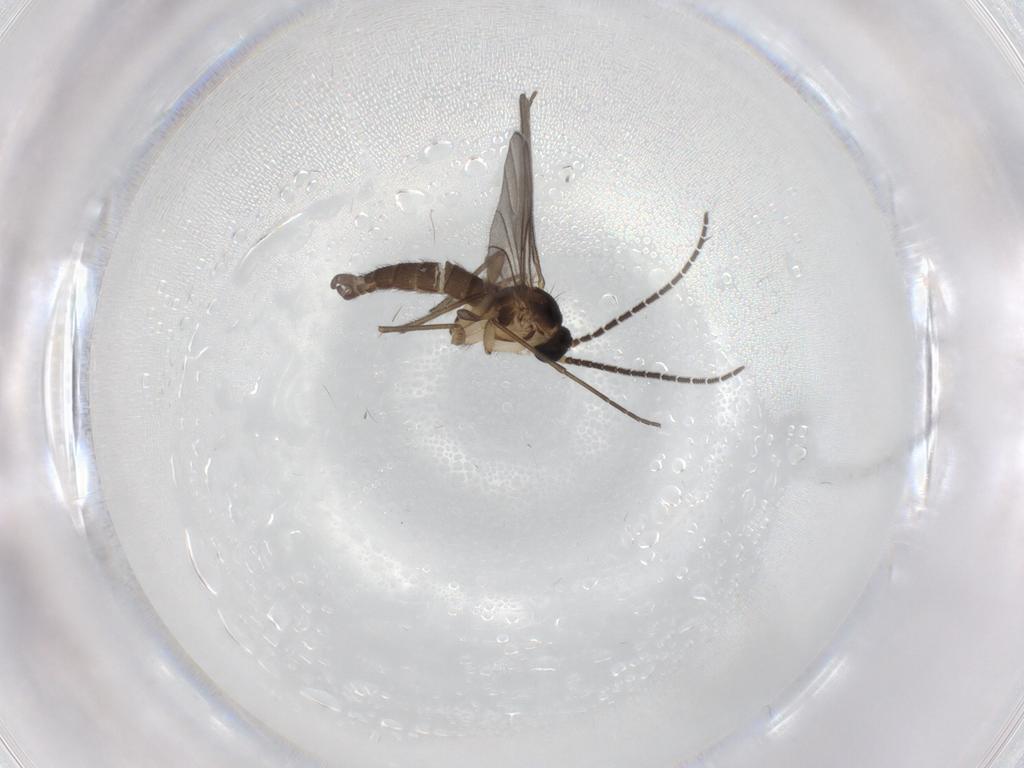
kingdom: Animalia
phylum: Arthropoda
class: Insecta
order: Diptera
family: Sciaridae
